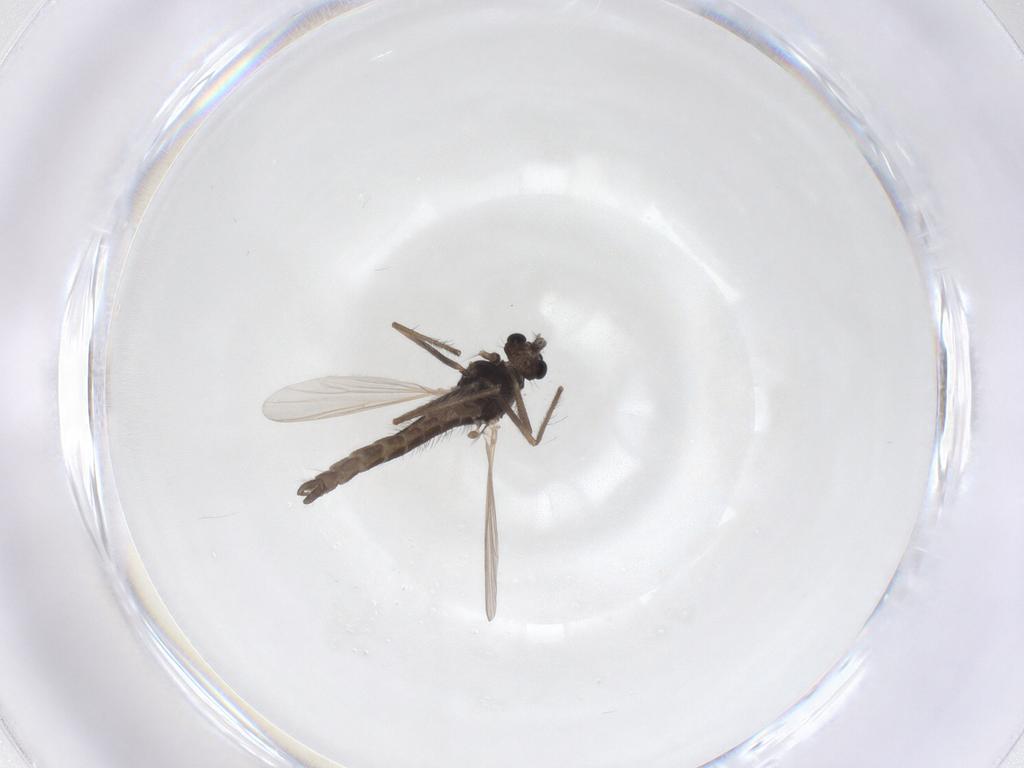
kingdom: Animalia
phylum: Arthropoda
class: Insecta
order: Diptera
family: Chironomidae
